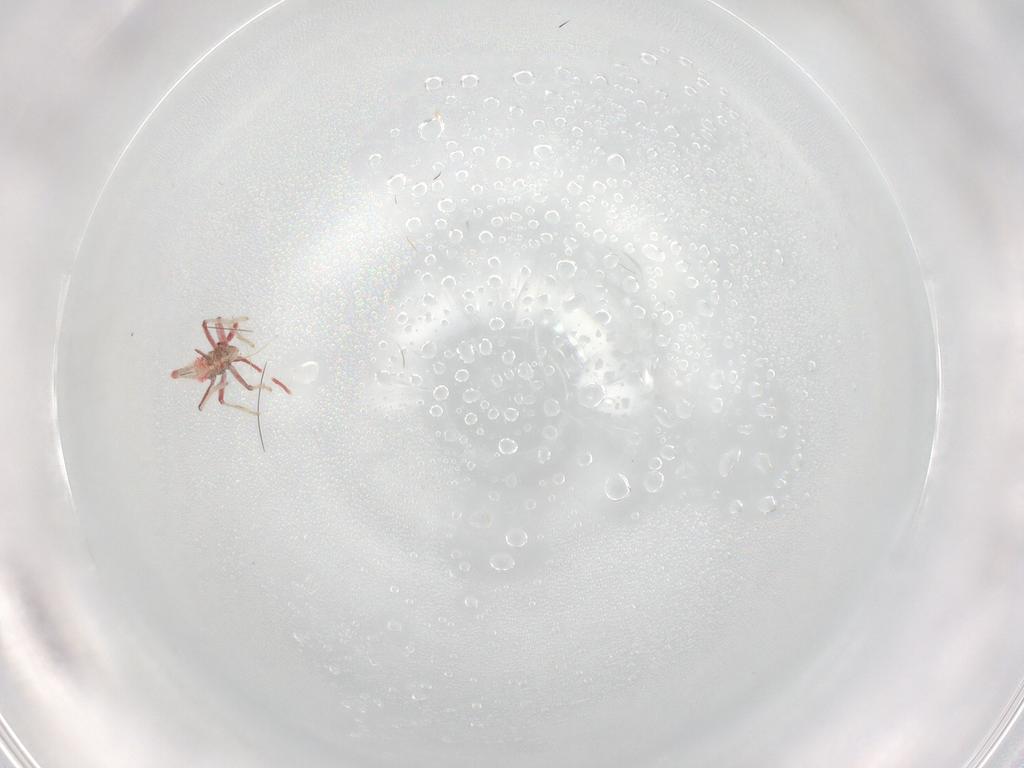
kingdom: Animalia
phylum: Arthropoda
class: Insecta
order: Hemiptera
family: Miridae
